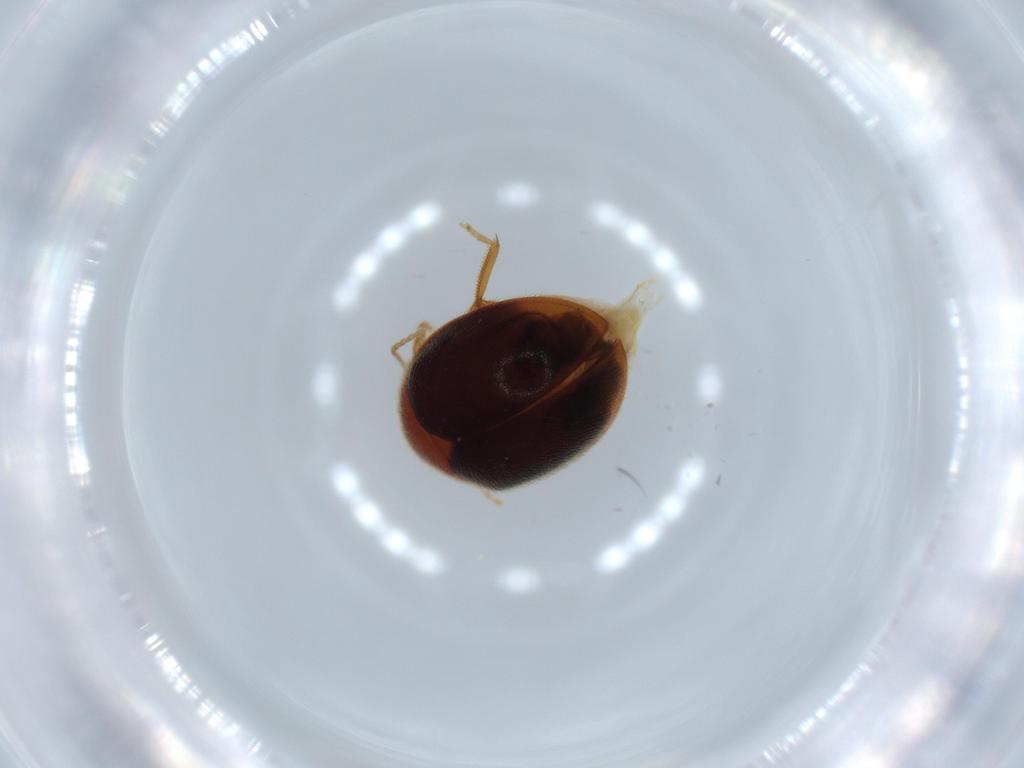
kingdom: Animalia
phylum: Arthropoda
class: Insecta
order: Coleoptera
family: Scirtidae
